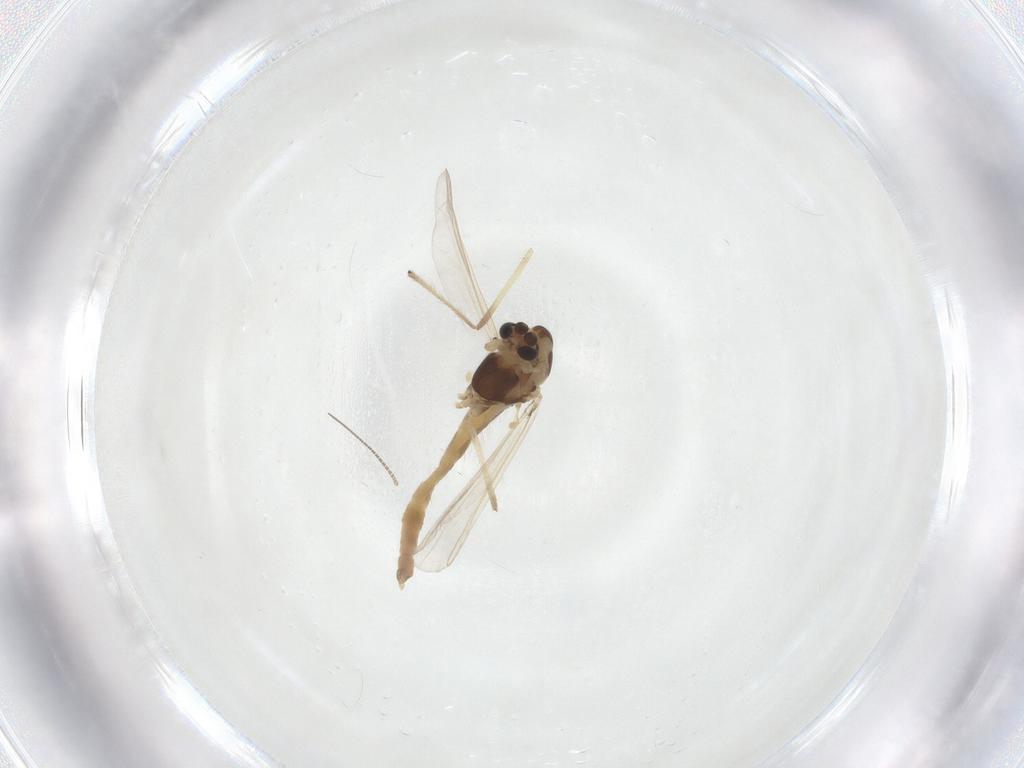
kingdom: Animalia
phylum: Arthropoda
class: Insecta
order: Diptera
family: Chironomidae
